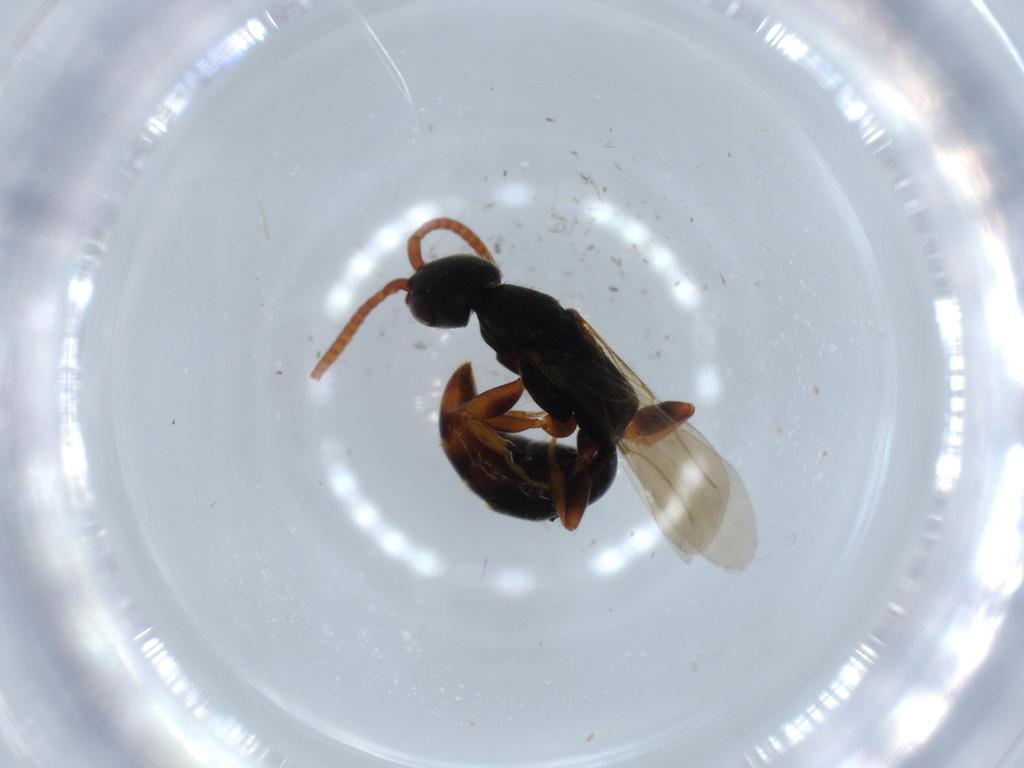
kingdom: Animalia
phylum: Arthropoda
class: Insecta
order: Hymenoptera
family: Bethylidae
